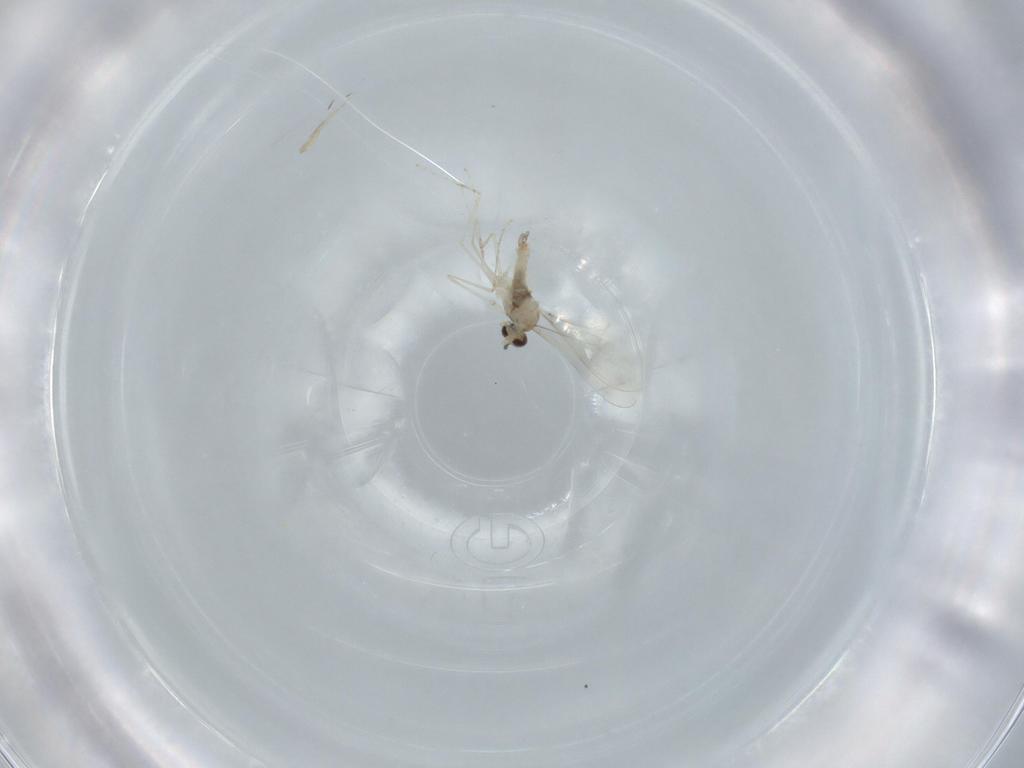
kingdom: Animalia
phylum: Arthropoda
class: Insecta
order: Diptera
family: Cecidomyiidae
